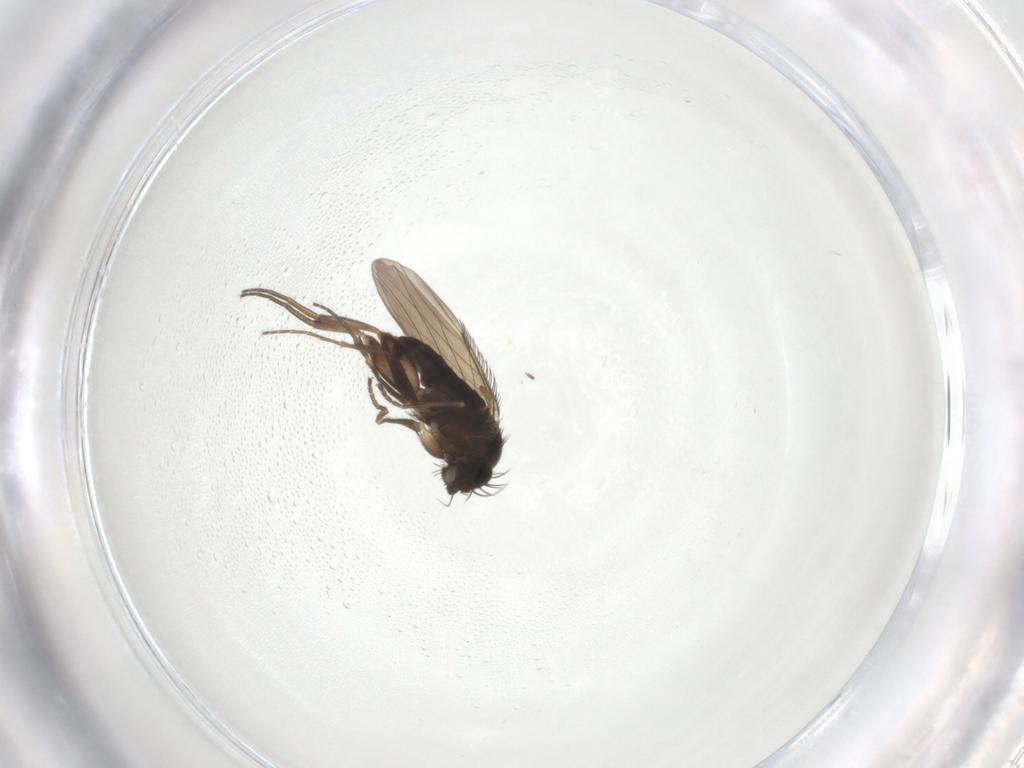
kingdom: Animalia
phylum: Arthropoda
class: Insecta
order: Diptera
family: Phoridae
